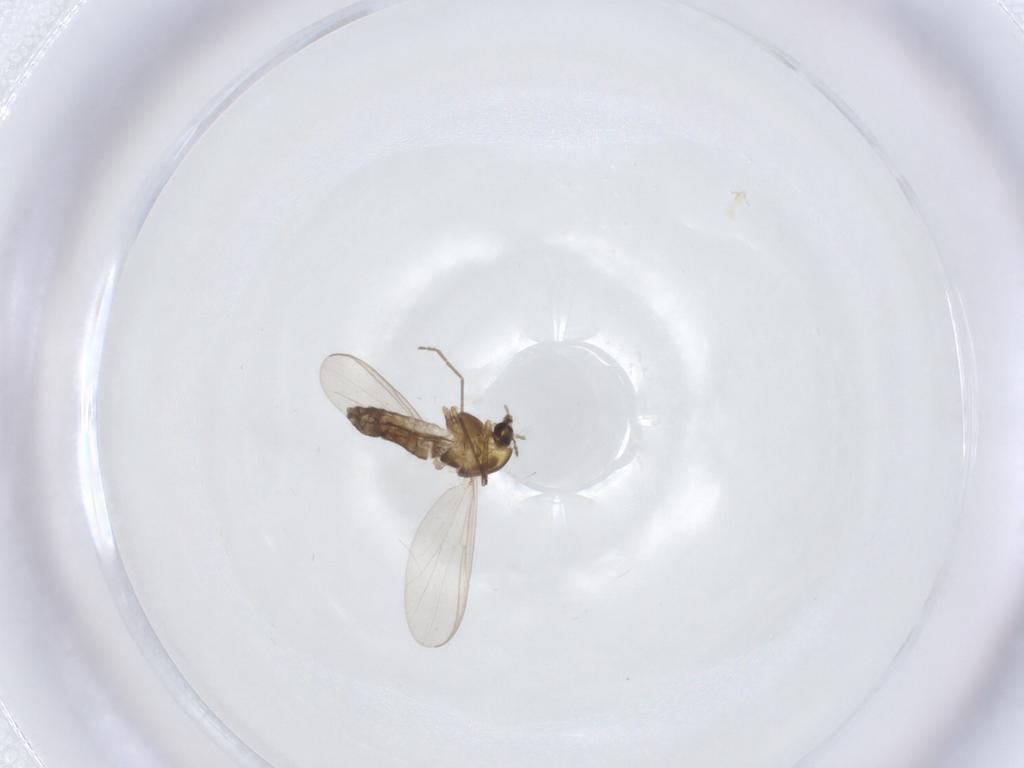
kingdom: Animalia
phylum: Arthropoda
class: Insecta
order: Diptera
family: Chironomidae
